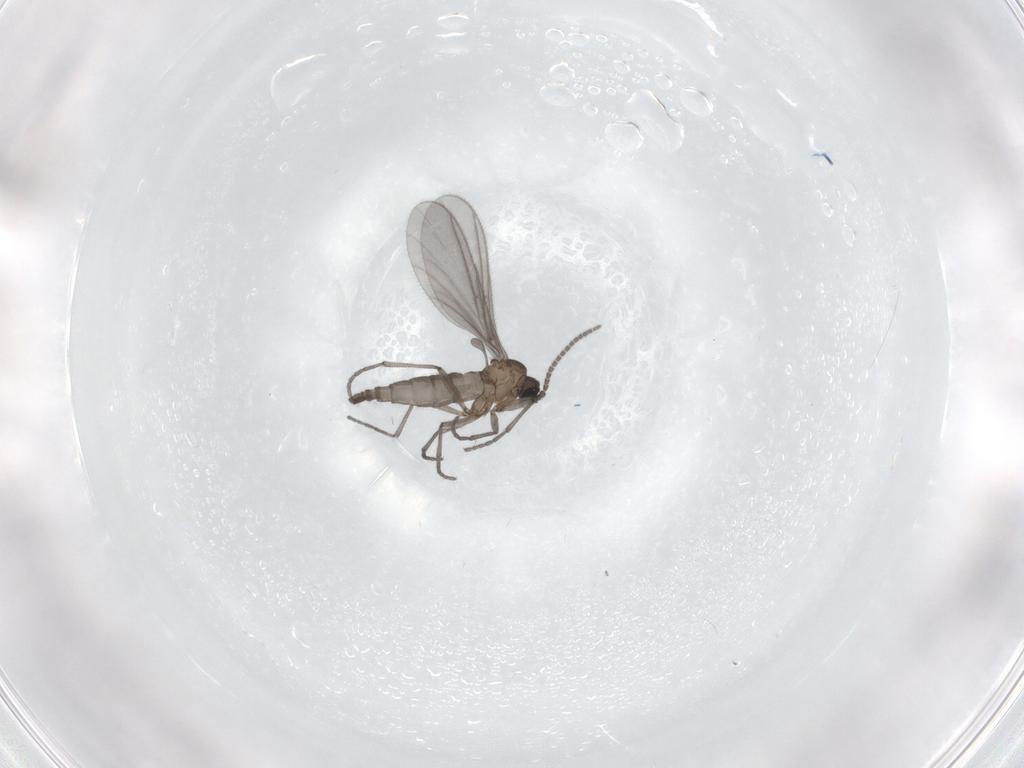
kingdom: Animalia
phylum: Arthropoda
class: Insecta
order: Diptera
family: Sciaridae
